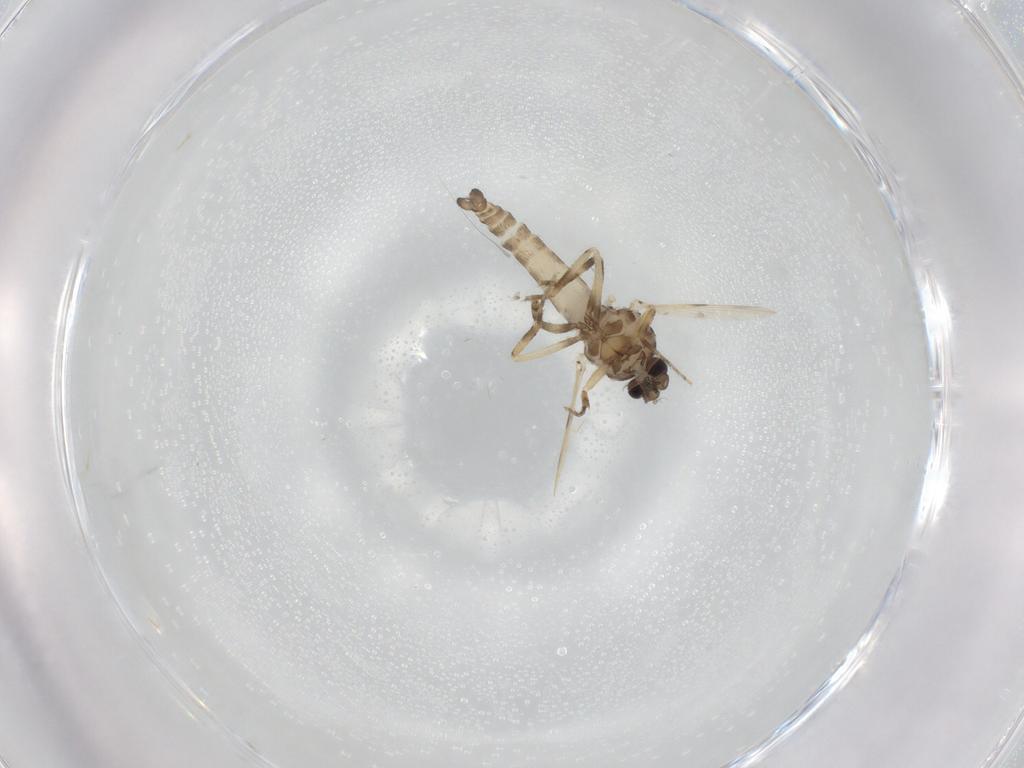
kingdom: Animalia
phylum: Arthropoda
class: Insecta
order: Diptera
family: Ceratopogonidae
